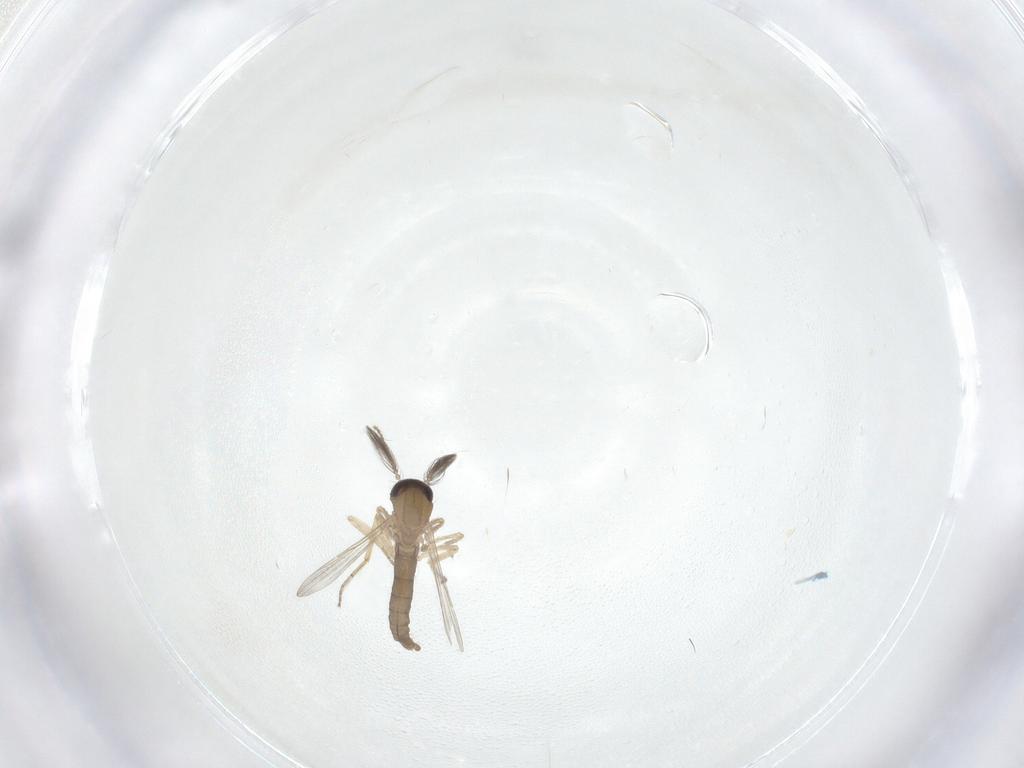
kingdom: Animalia
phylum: Arthropoda
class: Insecta
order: Diptera
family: Ceratopogonidae
